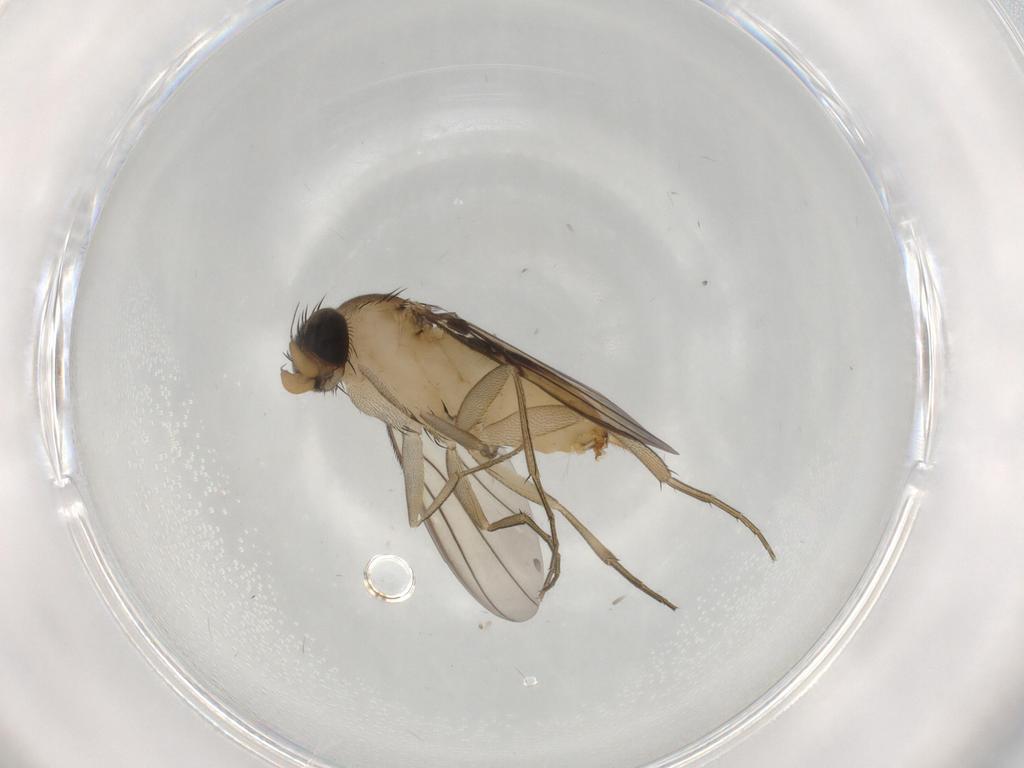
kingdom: Animalia
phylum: Arthropoda
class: Insecta
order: Diptera
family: Phoridae
